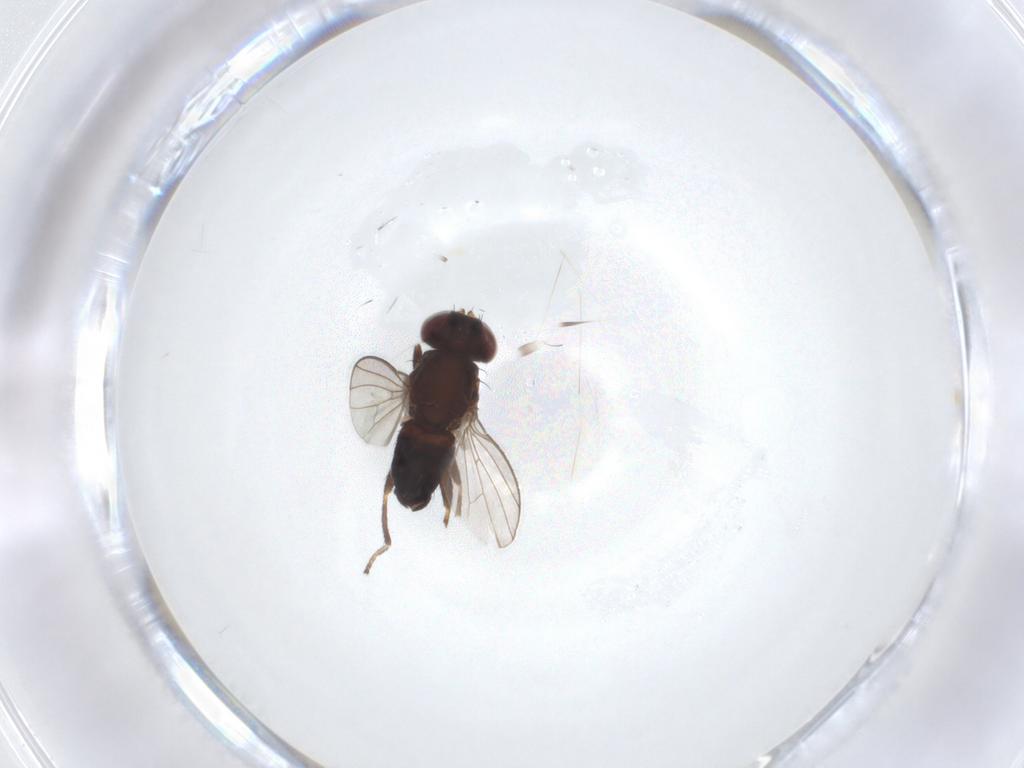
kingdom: Animalia
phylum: Arthropoda
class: Insecta
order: Diptera
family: Heleomyzidae
